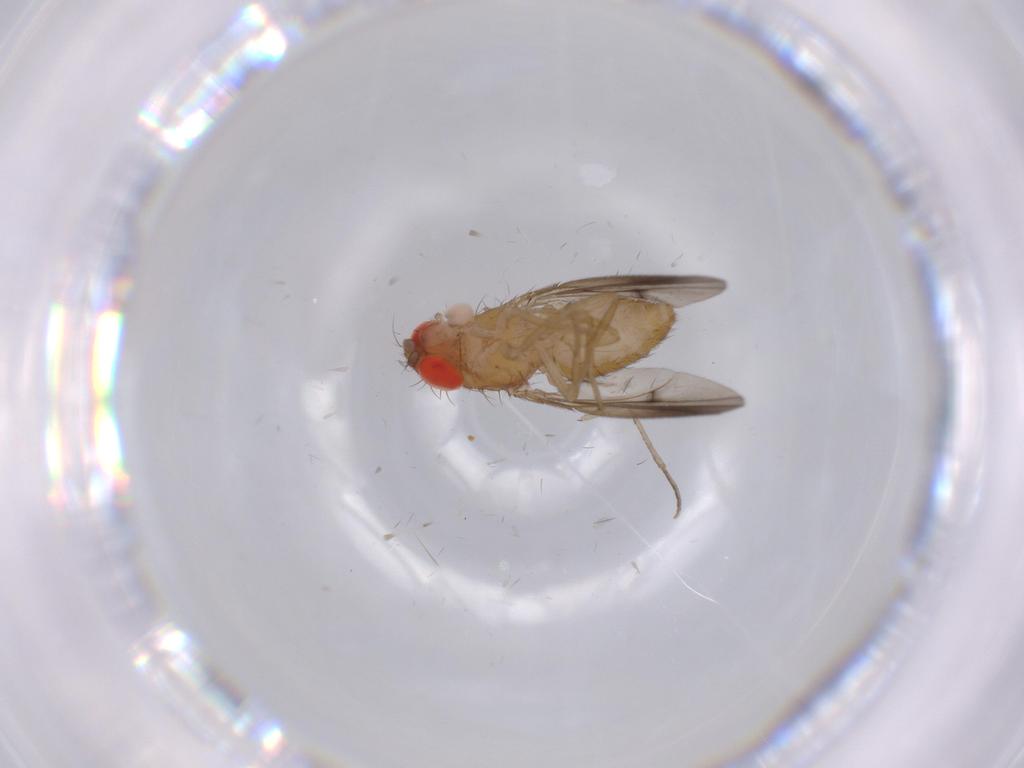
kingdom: Animalia
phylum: Arthropoda
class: Insecta
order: Diptera
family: Drosophilidae
